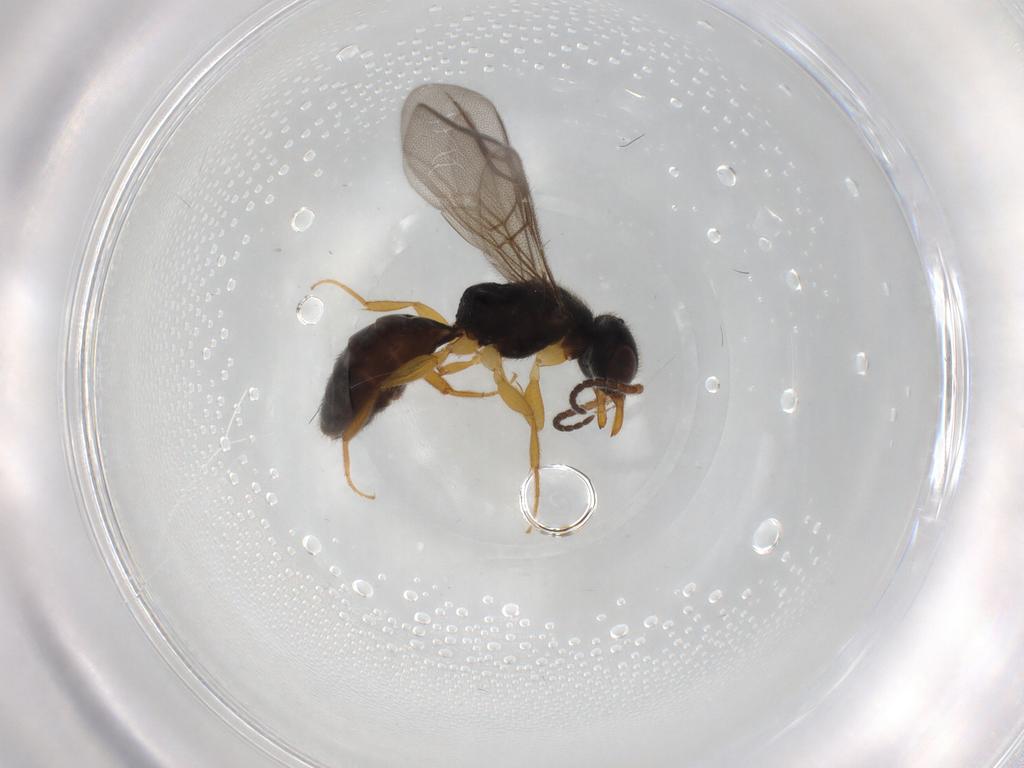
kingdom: Animalia
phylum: Arthropoda
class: Insecta
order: Hymenoptera
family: Bethylidae
